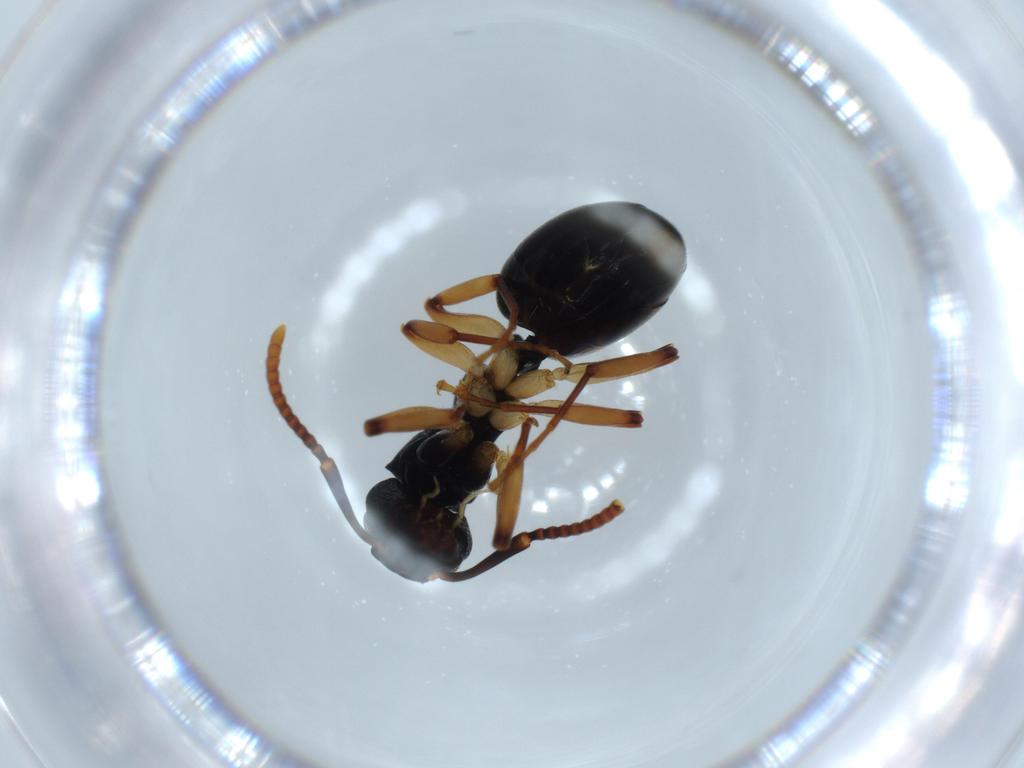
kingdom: Animalia
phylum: Arthropoda
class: Insecta
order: Hymenoptera
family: Formicidae
